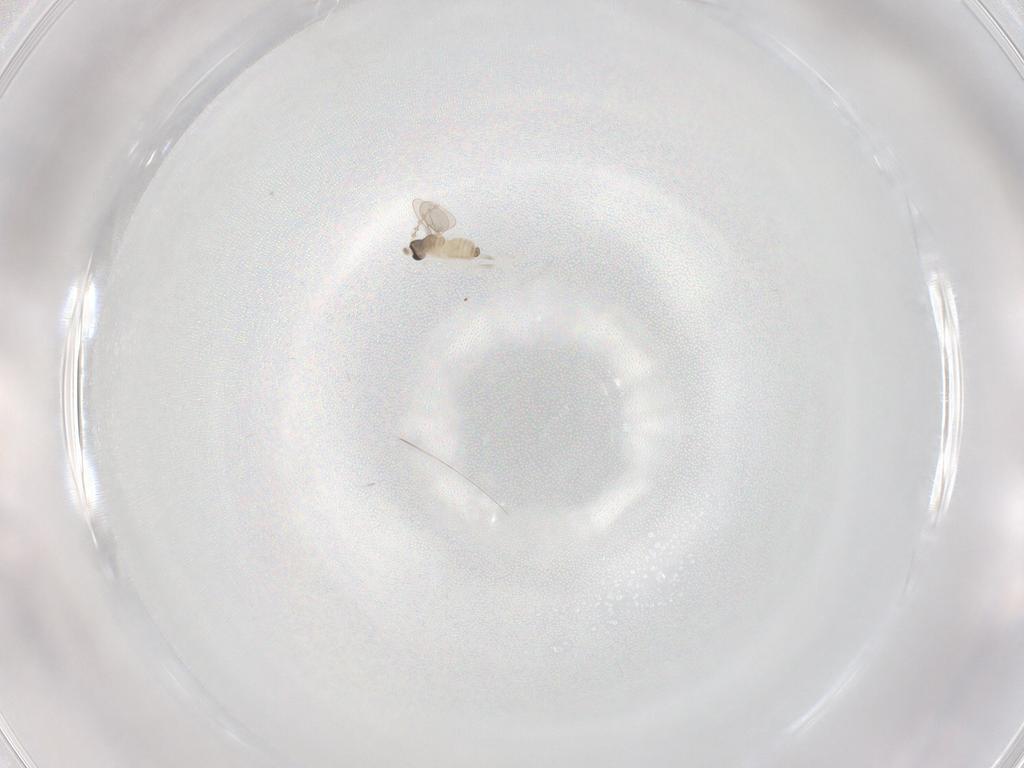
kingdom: Animalia
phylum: Arthropoda
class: Insecta
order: Diptera
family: Cecidomyiidae
